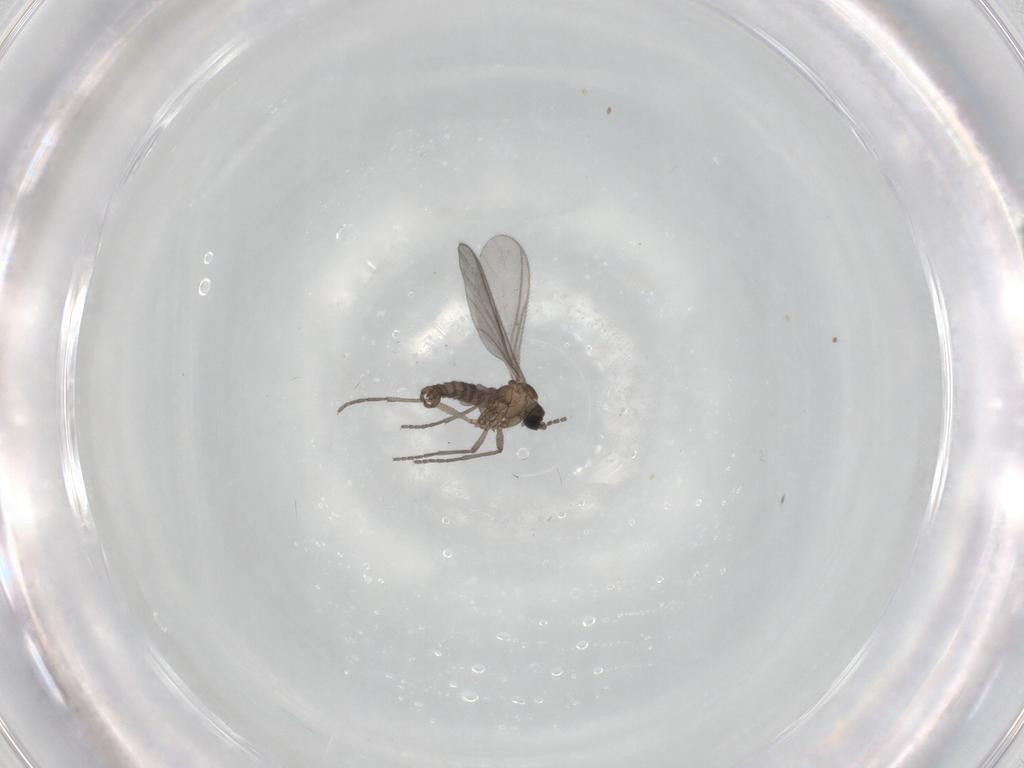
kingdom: Animalia
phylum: Arthropoda
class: Insecta
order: Diptera
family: Sciaridae
